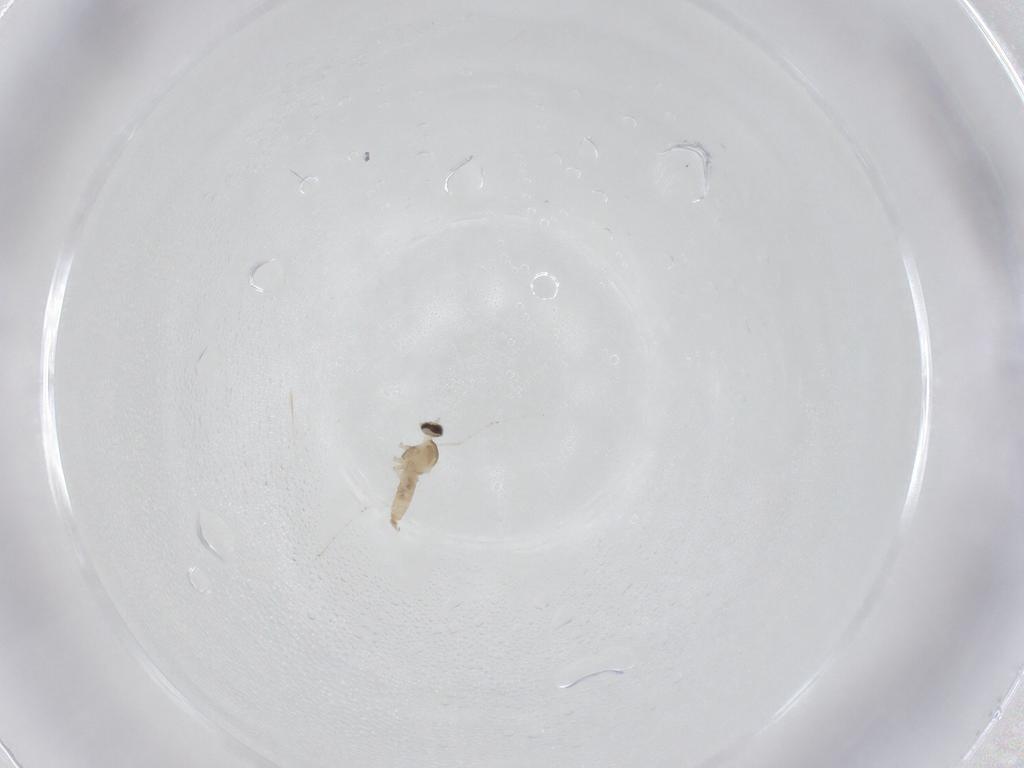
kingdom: Animalia
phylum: Arthropoda
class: Insecta
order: Diptera
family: Cecidomyiidae
